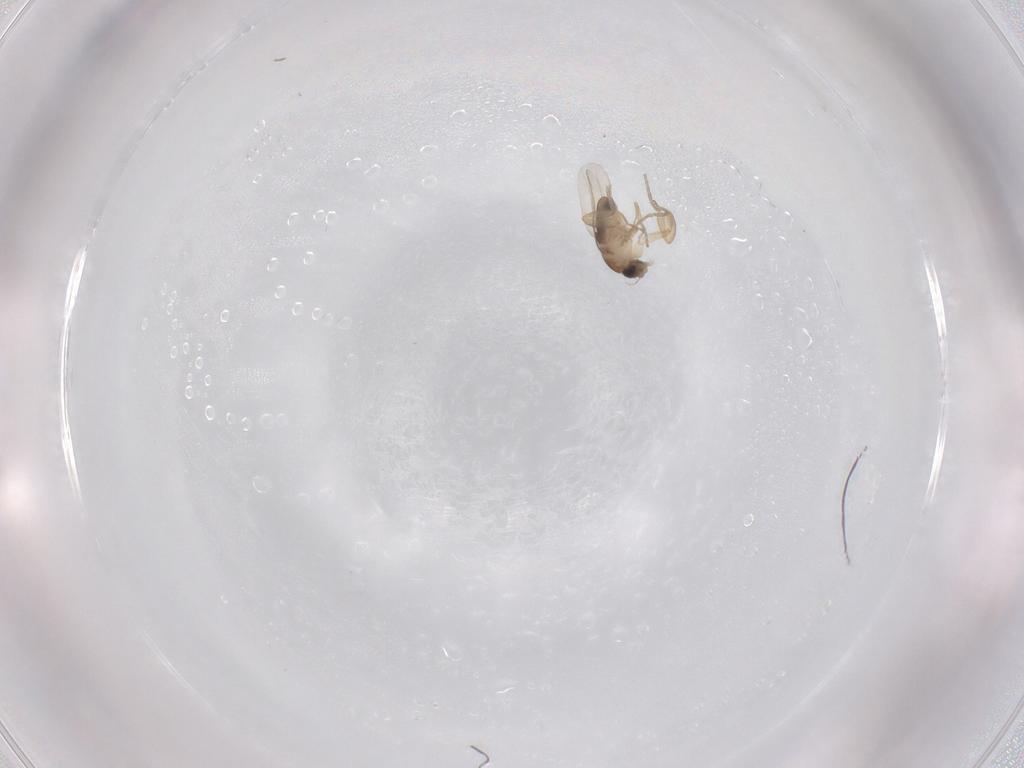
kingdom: Animalia
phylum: Arthropoda
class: Insecta
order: Diptera
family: Phoridae
